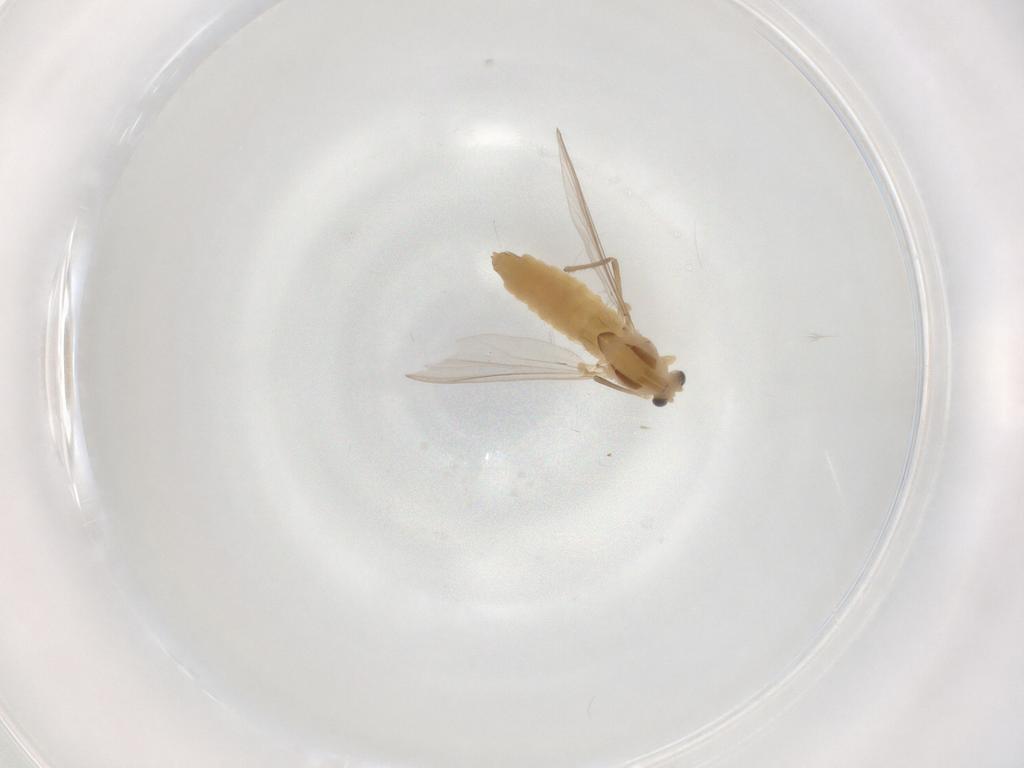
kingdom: Animalia
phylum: Arthropoda
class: Insecta
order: Diptera
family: Chironomidae
